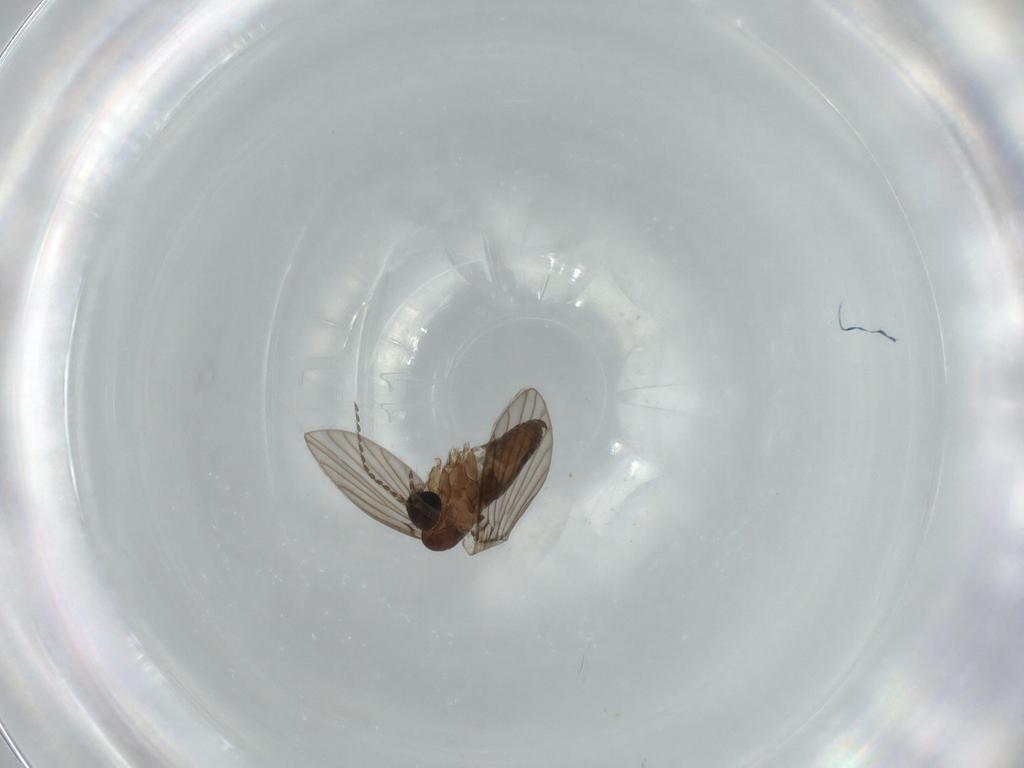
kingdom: Animalia
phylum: Arthropoda
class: Insecta
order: Diptera
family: Psychodidae
